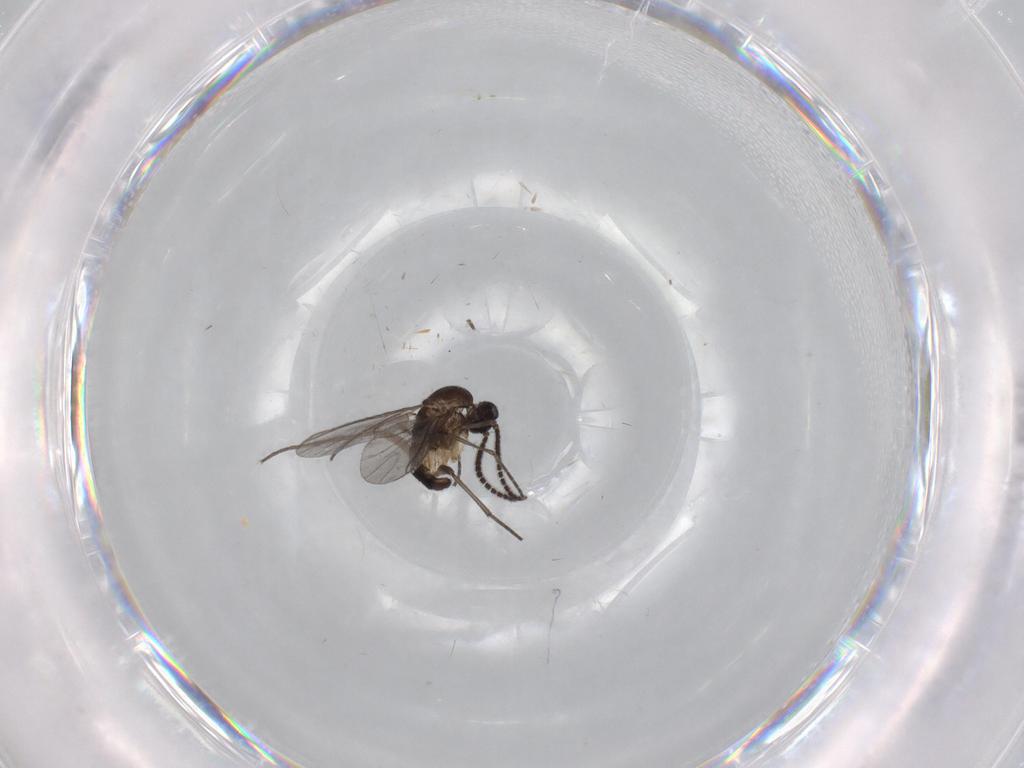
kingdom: Animalia
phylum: Arthropoda
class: Insecta
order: Diptera
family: Sciaridae
